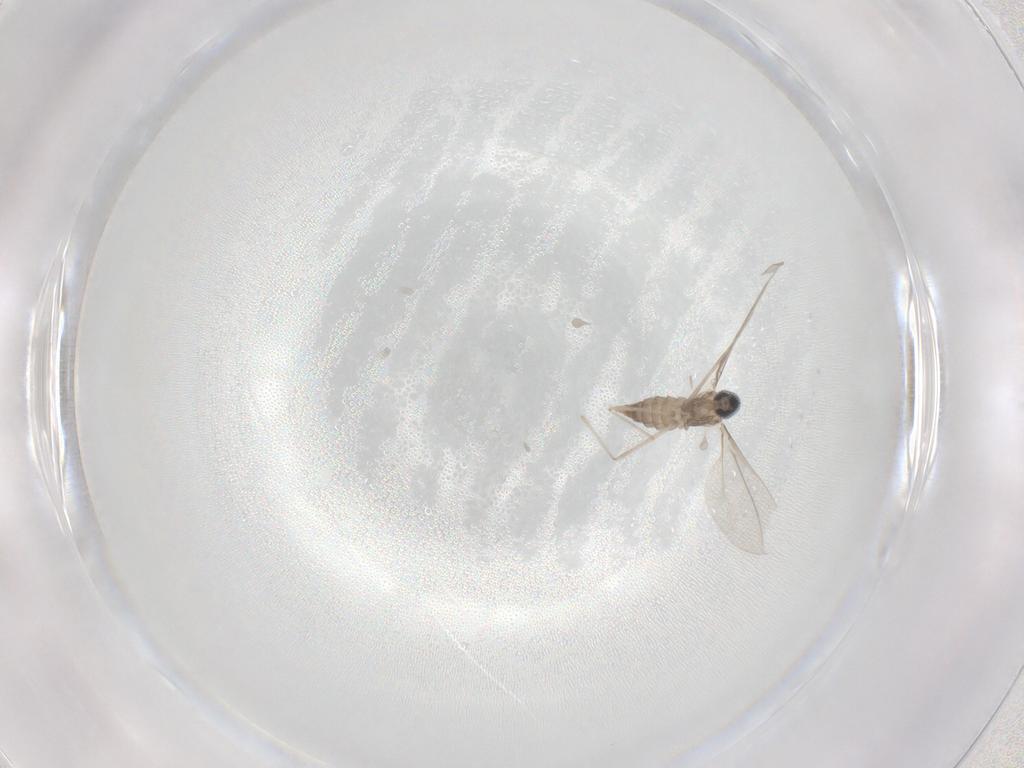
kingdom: Animalia
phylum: Arthropoda
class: Insecta
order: Diptera
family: Cecidomyiidae
